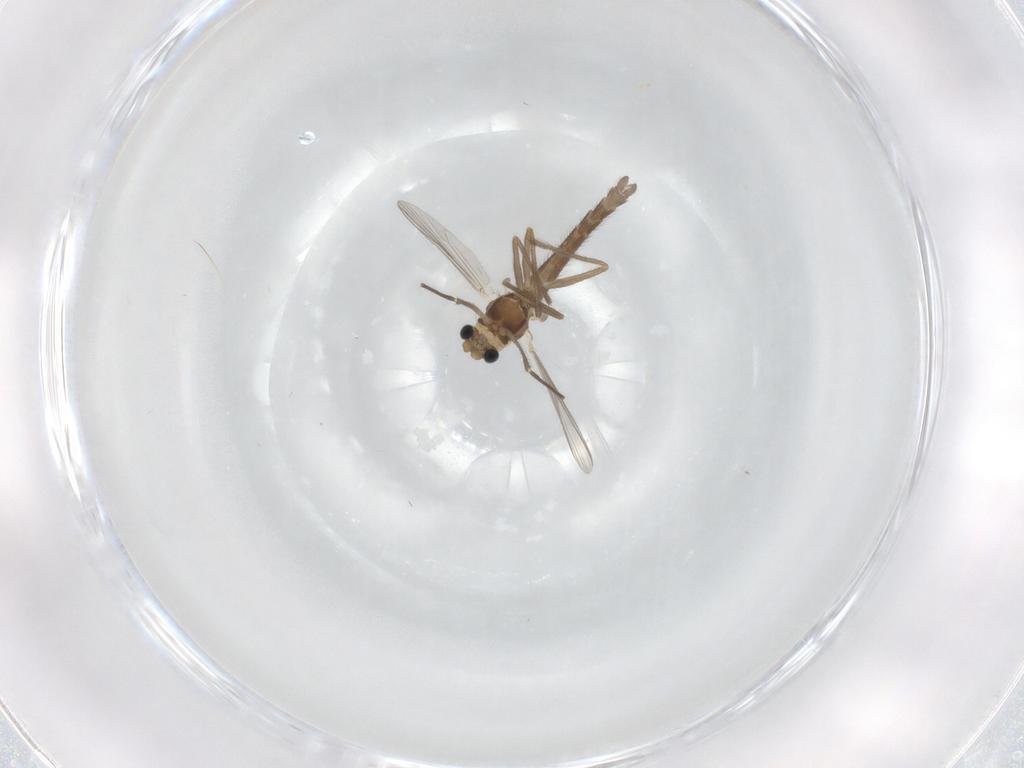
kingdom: Animalia
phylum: Arthropoda
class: Insecta
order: Diptera
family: Chironomidae
